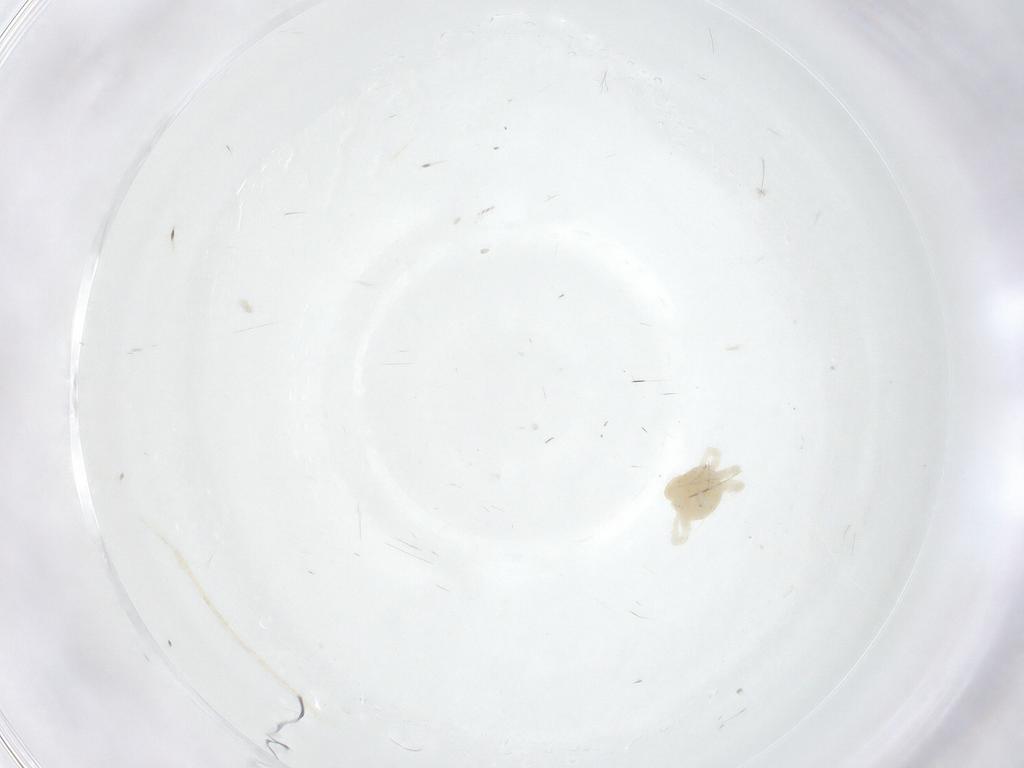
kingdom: Animalia
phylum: Arthropoda
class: Arachnida
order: Trombidiformes
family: Anystidae
